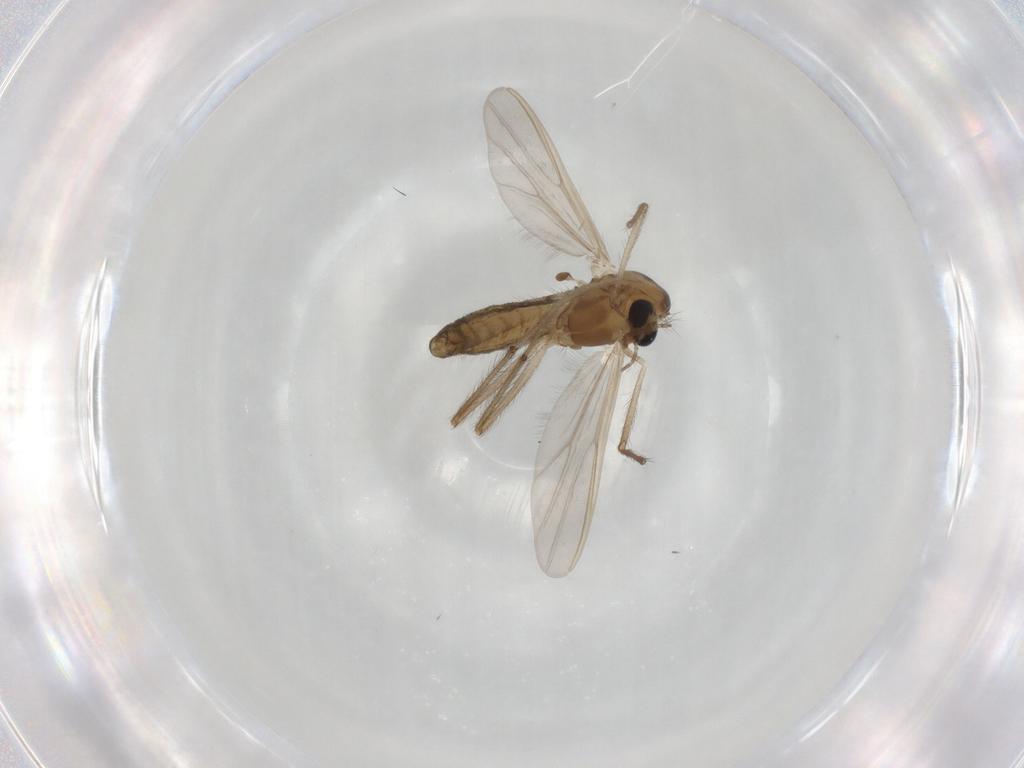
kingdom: Animalia
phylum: Arthropoda
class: Insecta
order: Diptera
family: Chironomidae
